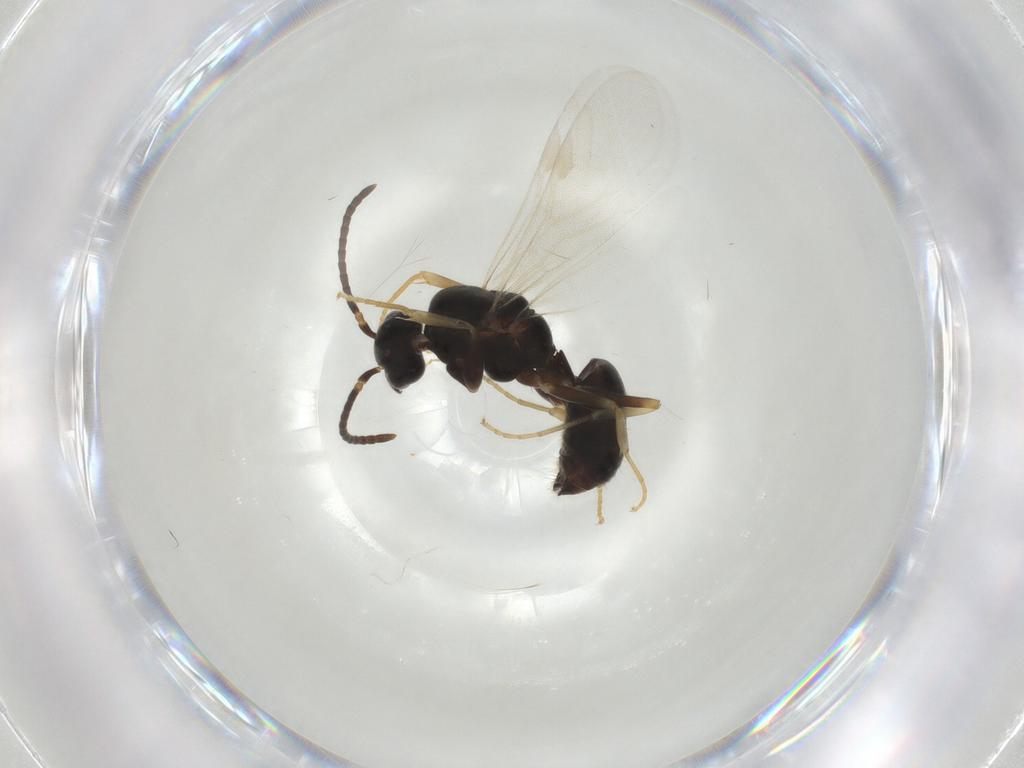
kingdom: Animalia
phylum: Arthropoda
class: Insecta
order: Hymenoptera
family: Formicidae
